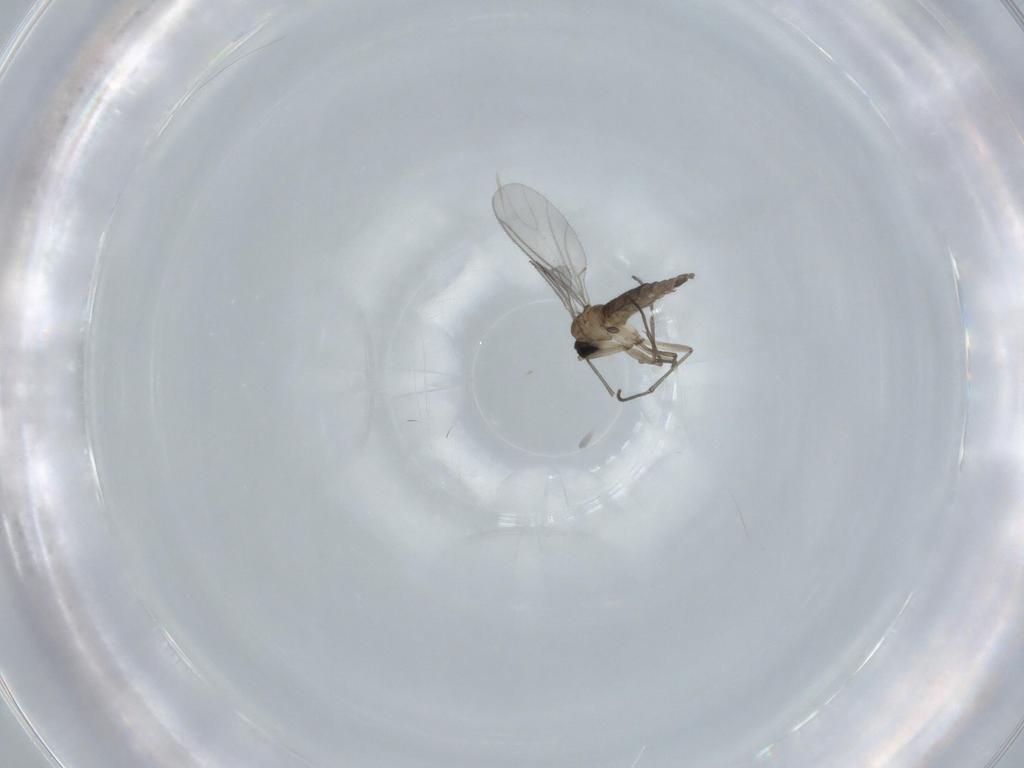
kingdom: Animalia
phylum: Arthropoda
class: Insecta
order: Diptera
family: Sciaridae
